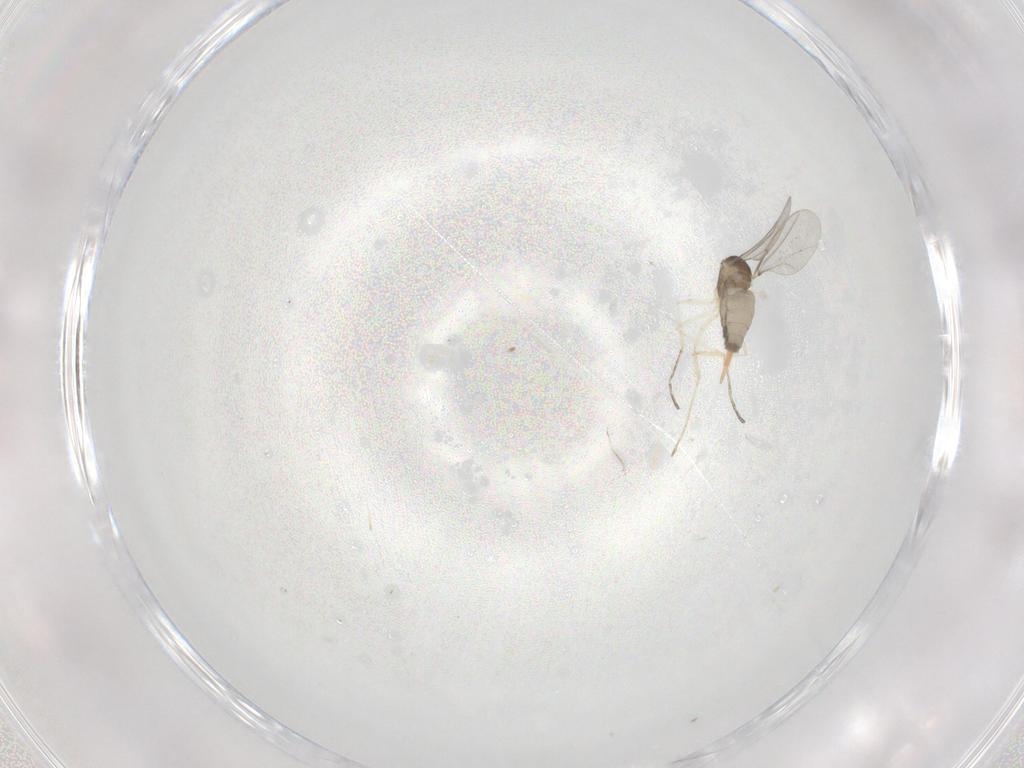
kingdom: Animalia
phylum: Arthropoda
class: Insecta
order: Diptera
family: Cecidomyiidae
